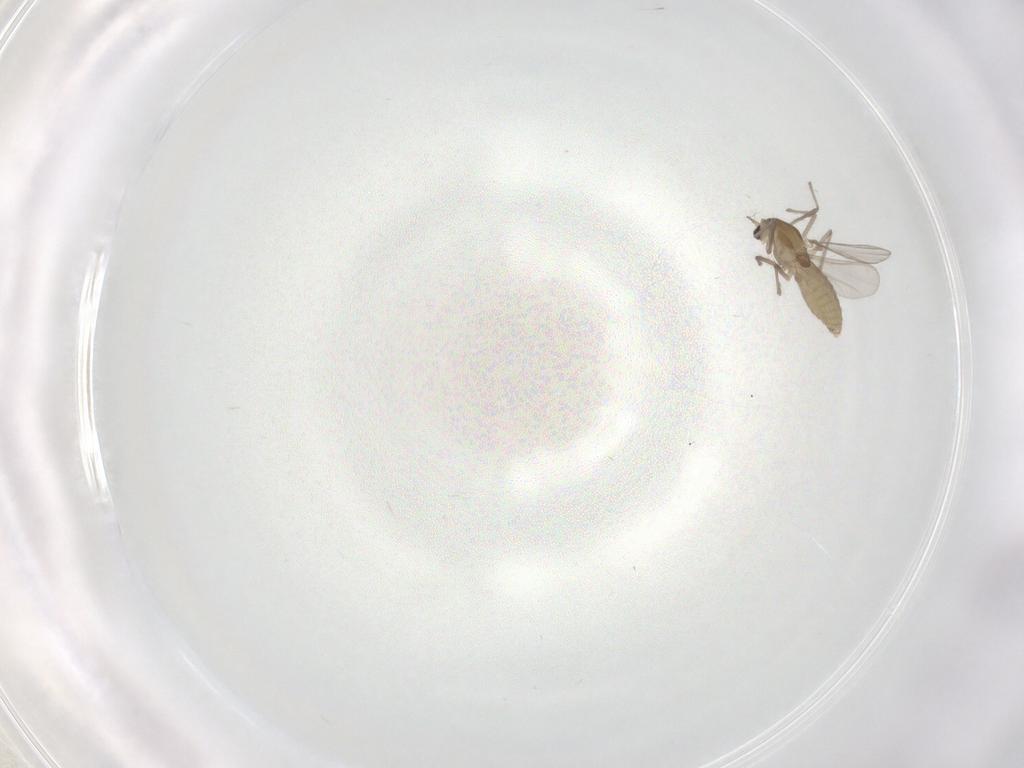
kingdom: Animalia
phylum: Arthropoda
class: Insecta
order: Diptera
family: Chironomidae
